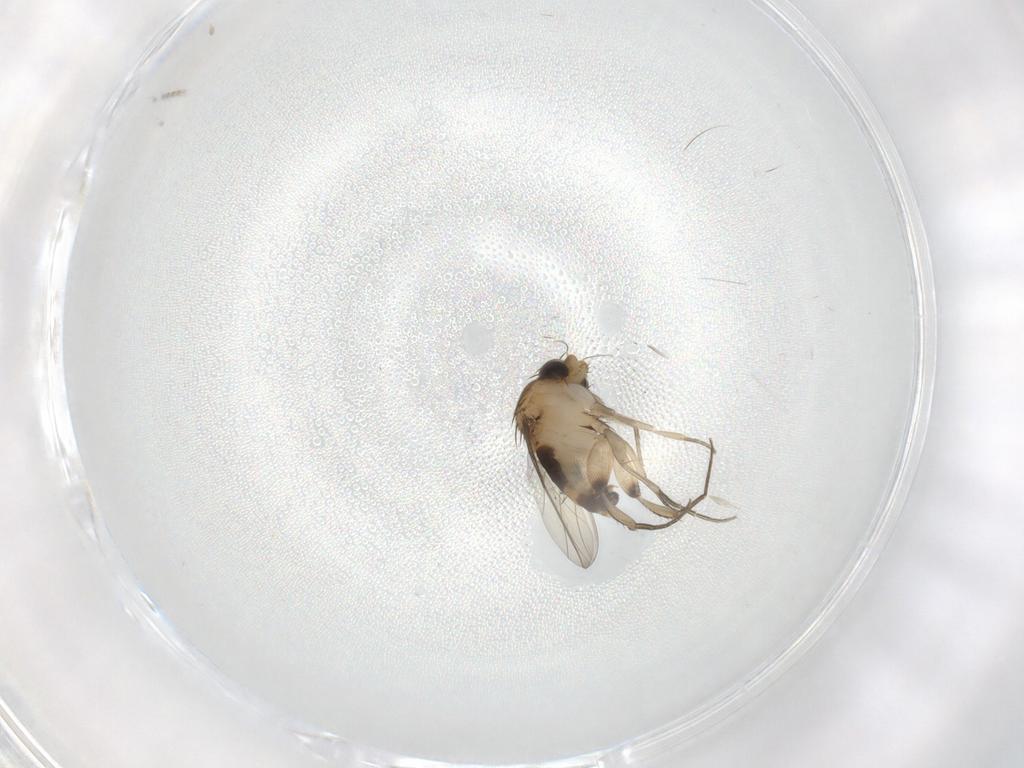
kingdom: Animalia
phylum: Arthropoda
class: Insecta
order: Diptera
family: Phoridae
